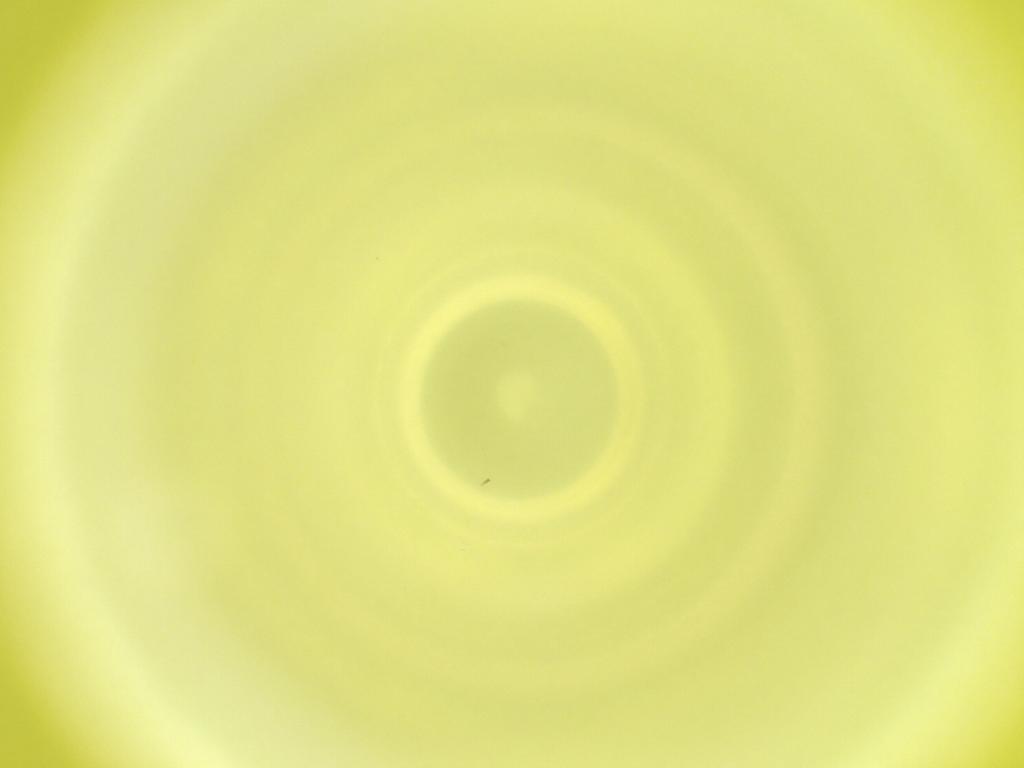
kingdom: Animalia
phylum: Arthropoda
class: Insecta
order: Diptera
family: Cecidomyiidae
